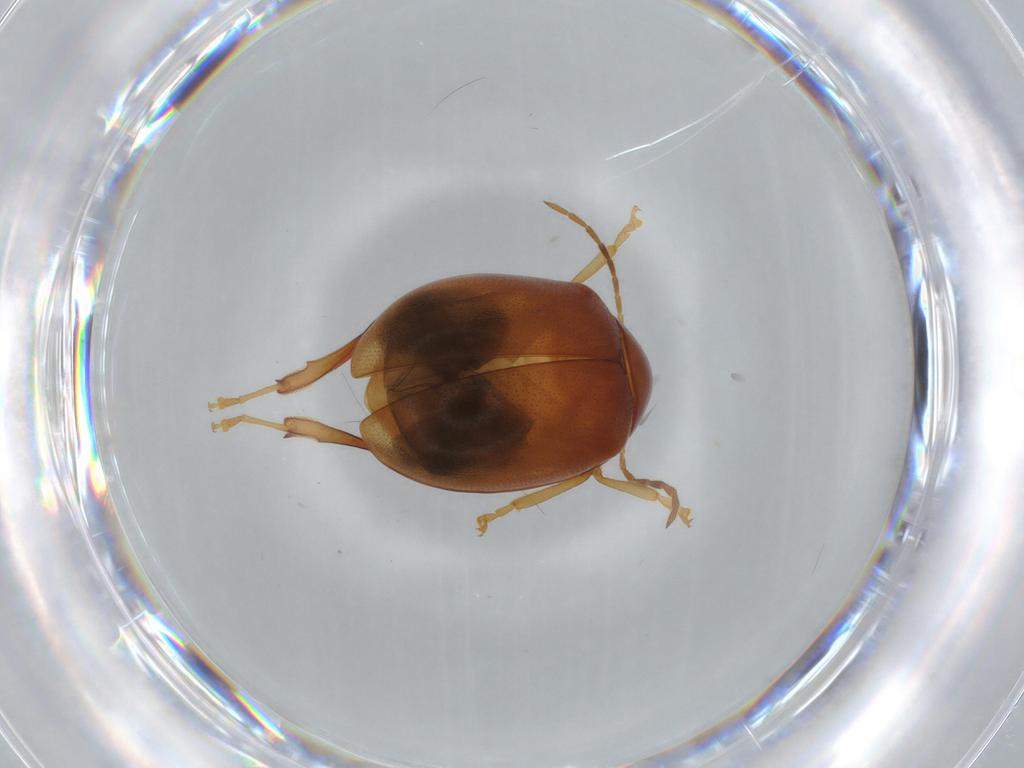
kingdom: Animalia
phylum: Arthropoda
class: Insecta
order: Coleoptera
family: Chrysomelidae
